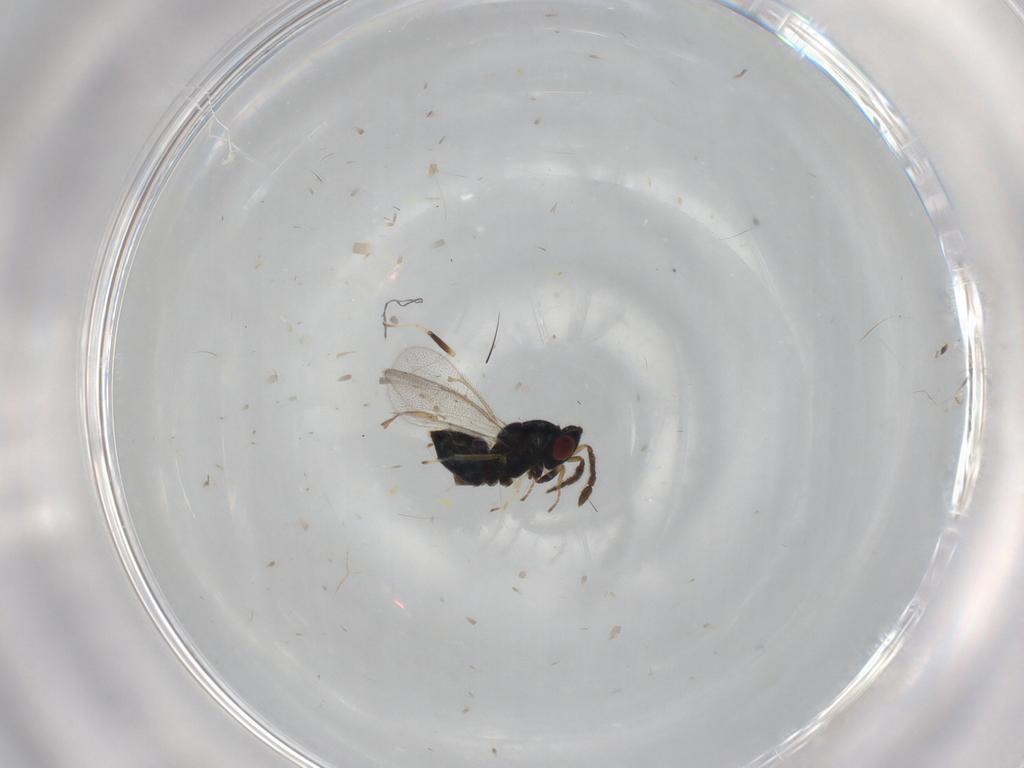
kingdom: Animalia
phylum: Arthropoda
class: Insecta
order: Hymenoptera
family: Eulophidae
